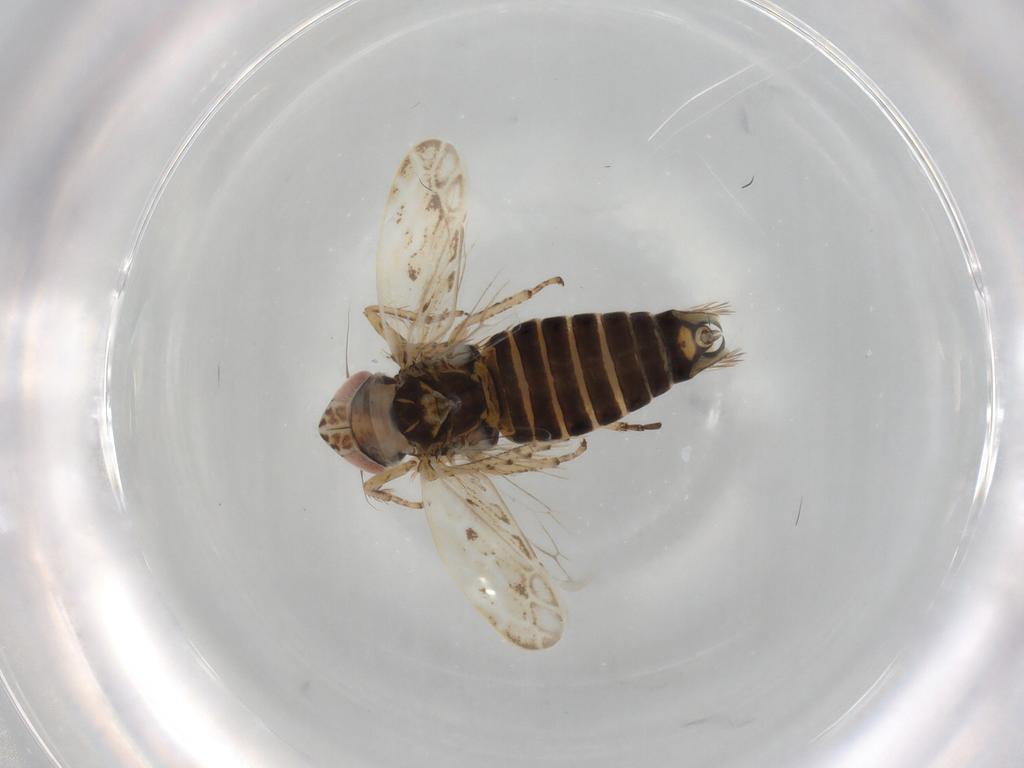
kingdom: Animalia
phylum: Arthropoda
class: Insecta
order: Hemiptera
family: Cicadellidae
